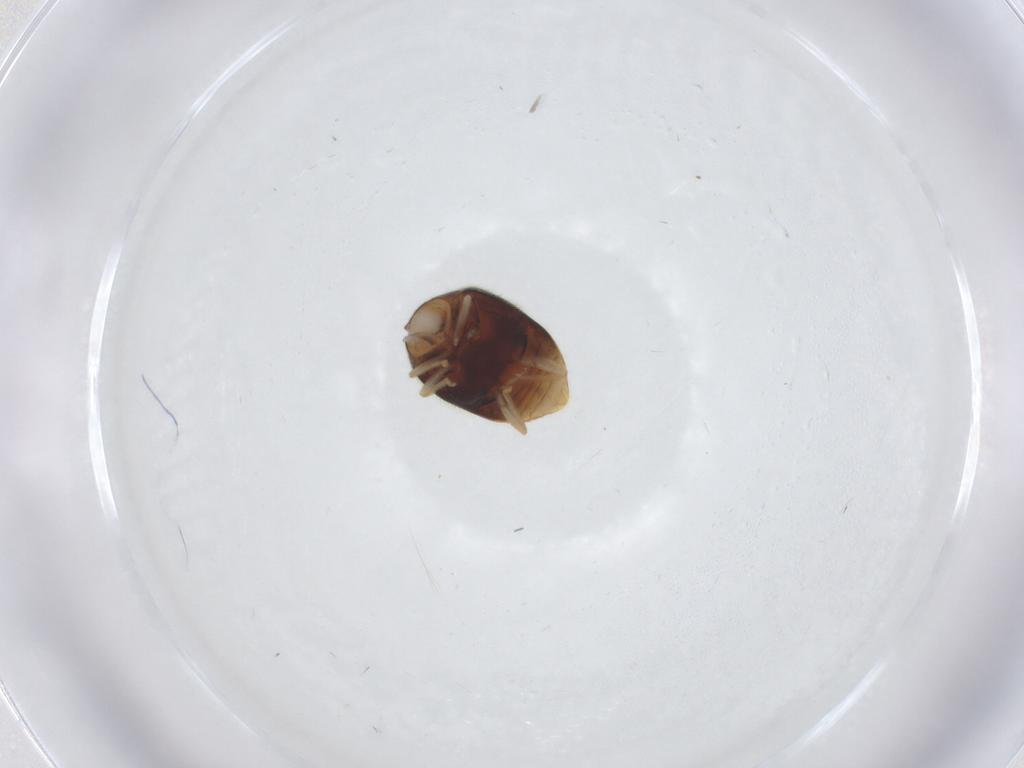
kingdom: Animalia
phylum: Arthropoda
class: Insecta
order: Coleoptera
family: Coccinellidae
